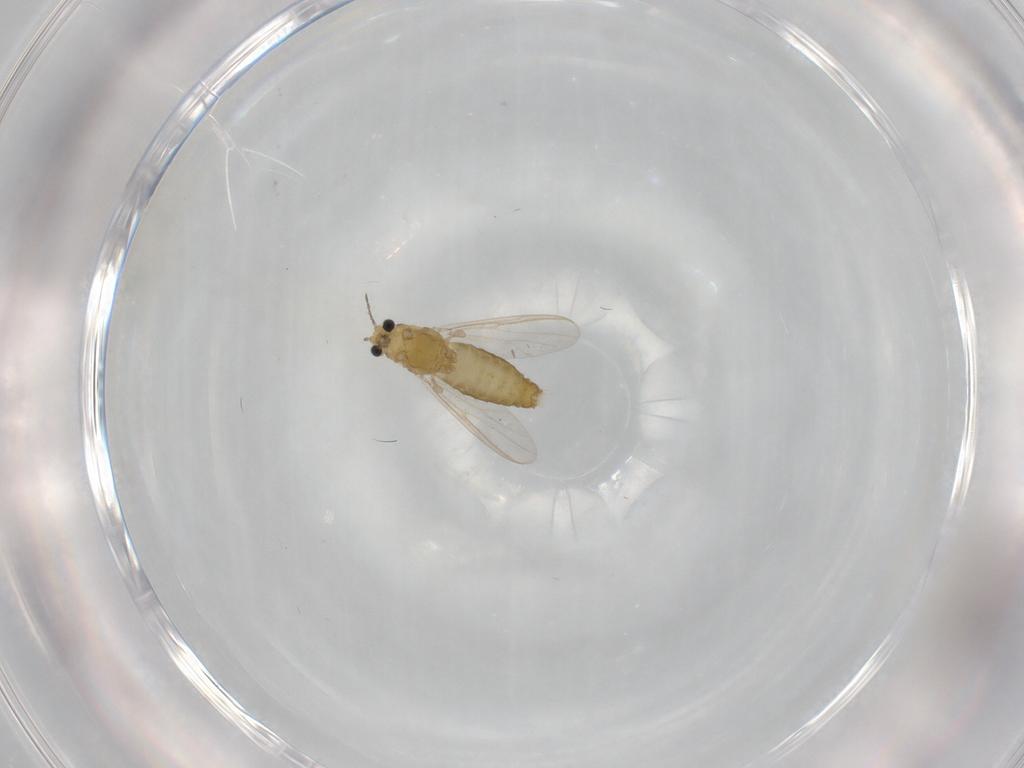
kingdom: Animalia
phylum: Arthropoda
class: Insecta
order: Diptera
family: Chironomidae
